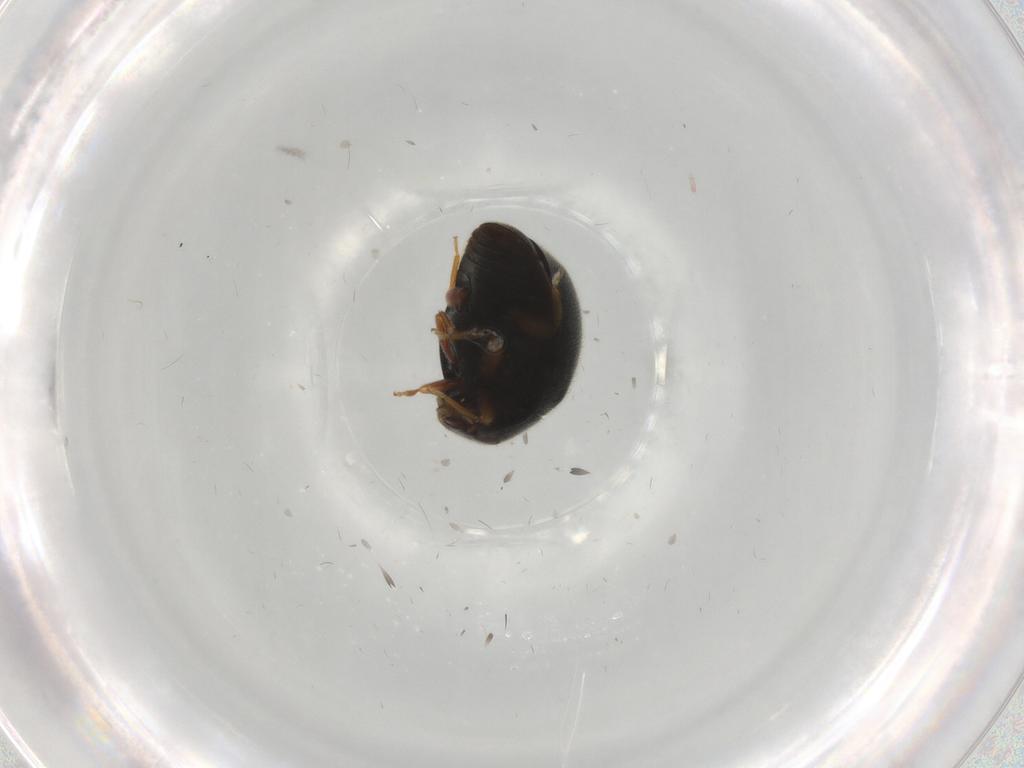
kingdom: Animalia
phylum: Arthropoda
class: Insecta
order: Coleoptera
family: Coccinellidae
